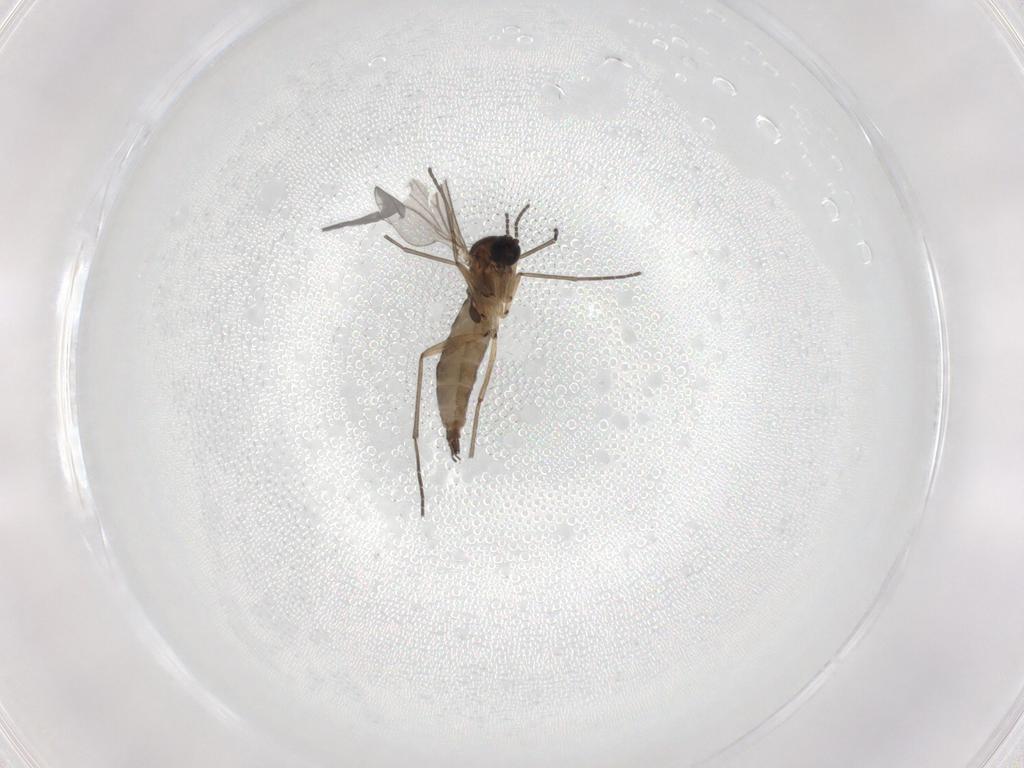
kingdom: Animalia
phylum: Arthropoda
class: Insecta
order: Diptera
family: Sciaridae
